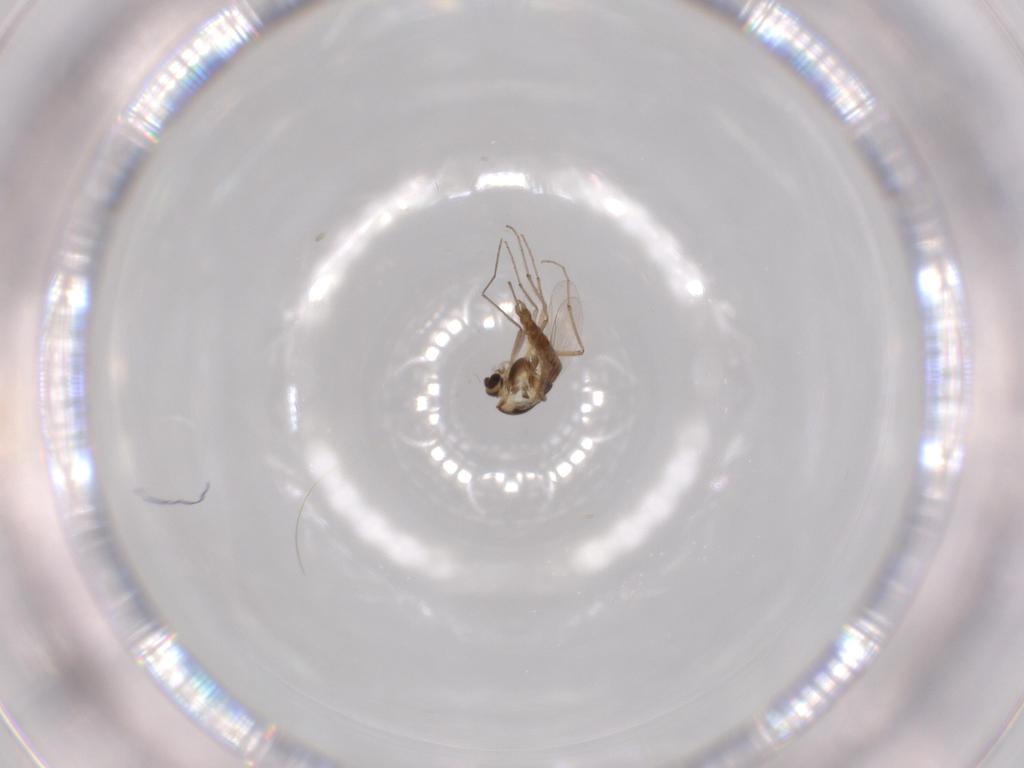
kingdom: Animalia
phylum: Arthropoda
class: Insecta
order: Diptera
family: Chironomidae
